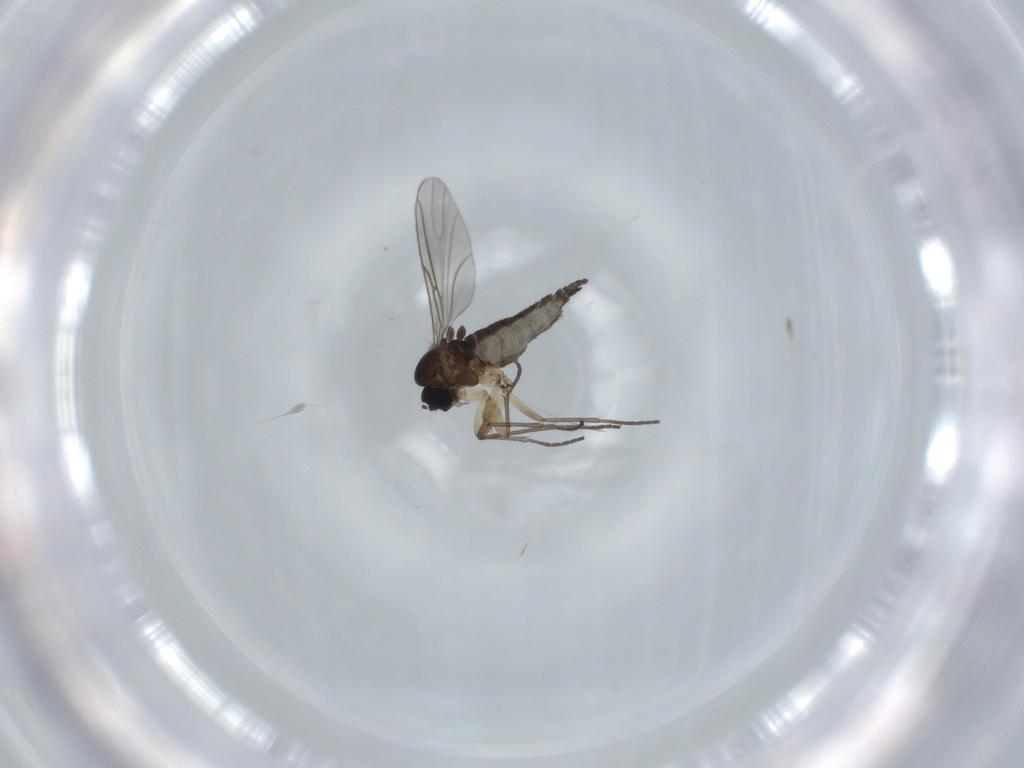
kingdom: Animalia
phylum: Arthropoda
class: Insecta
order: Diptera
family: Sciaridae
